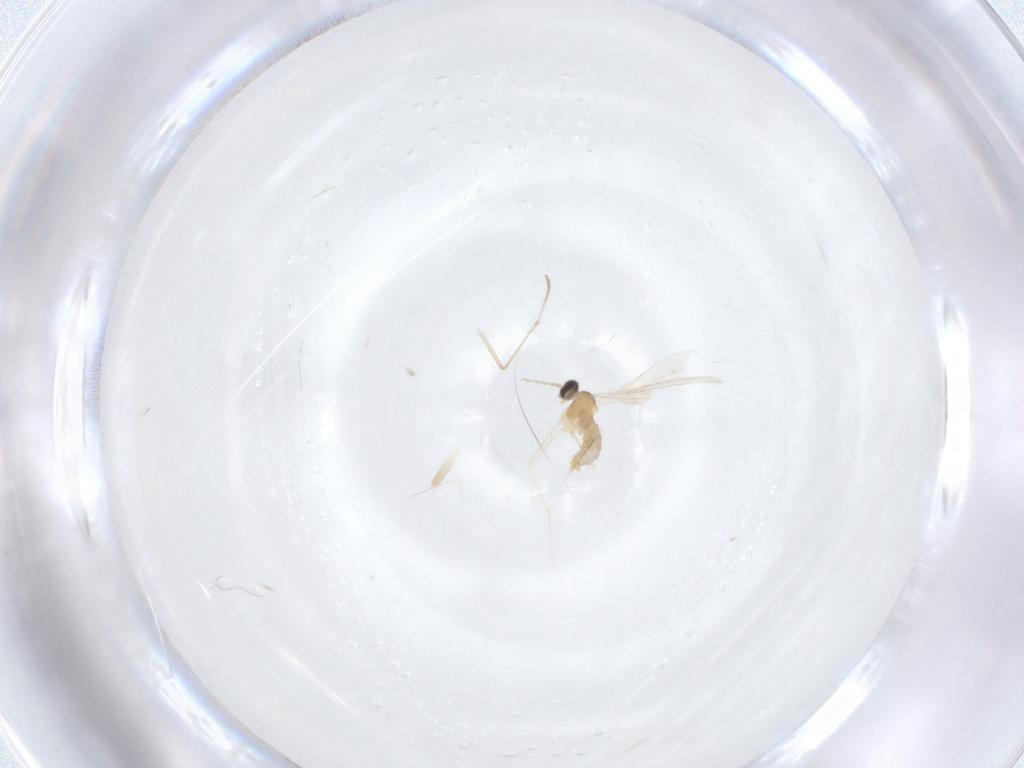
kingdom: Animalia
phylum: Arthropoda
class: Insecta
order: Diptera
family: Cecidomyiidae
